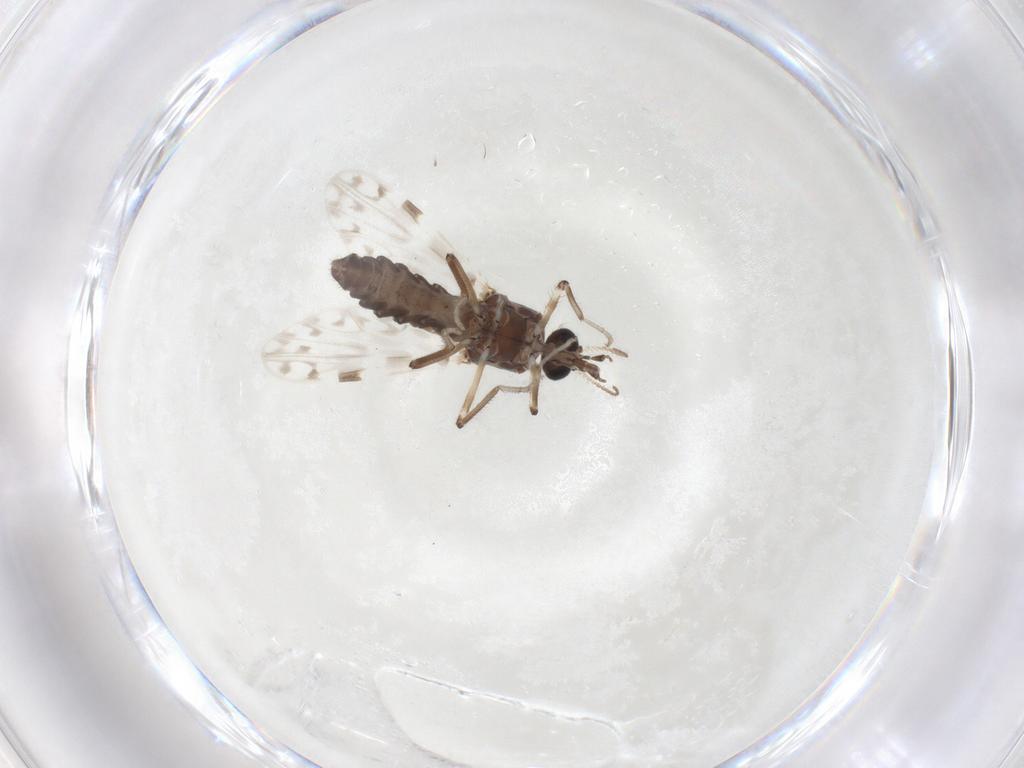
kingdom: Animalia
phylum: Arthropoda
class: Insecta
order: Diptera
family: Ceratopogonidae
